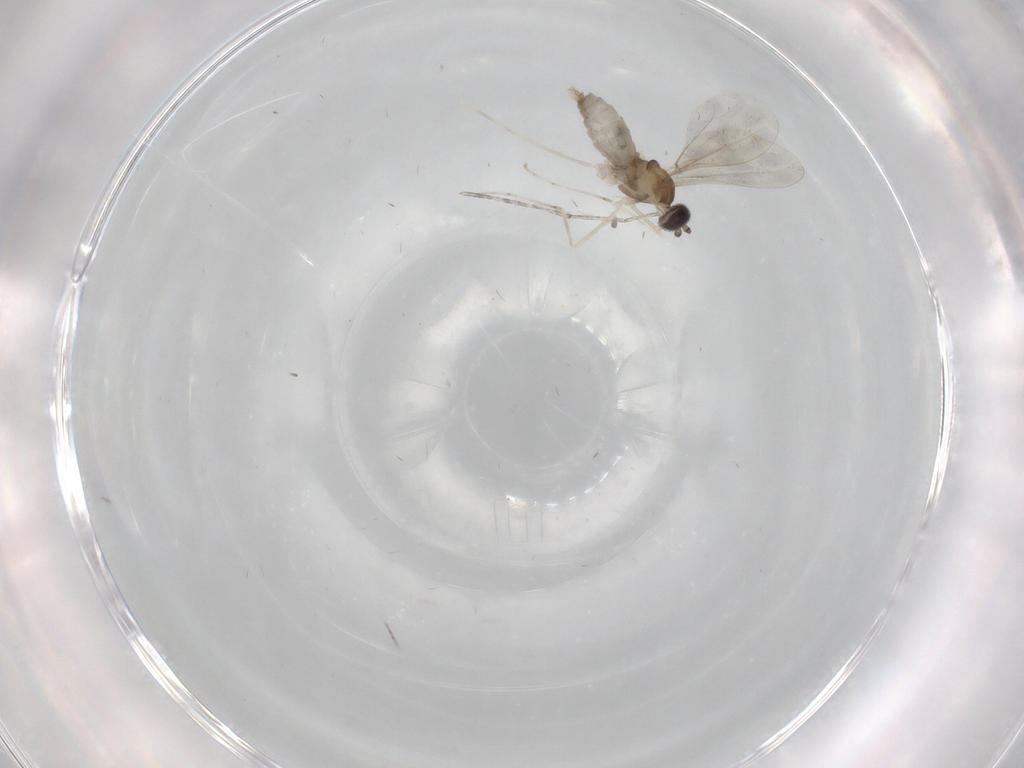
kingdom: Animalia
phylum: Arthropoda
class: Insecta
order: Diptera
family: Cecidomyiidae
